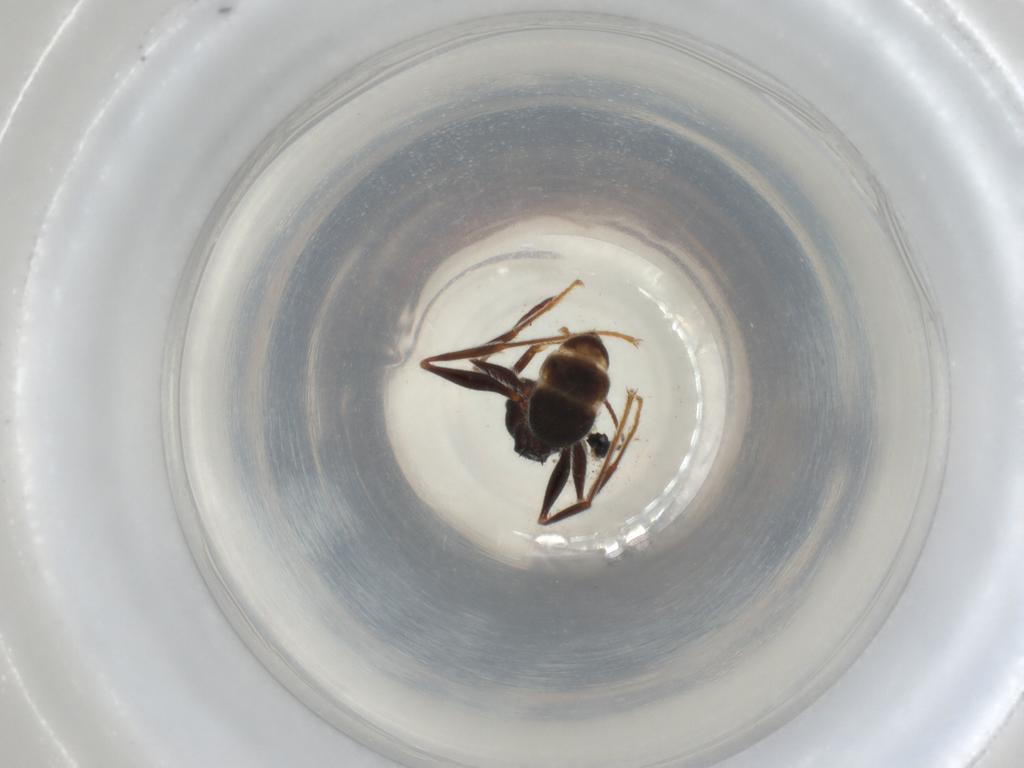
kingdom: Animalia
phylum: Arthropoda
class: Insecta
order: Hymenoptera
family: Formicidae
